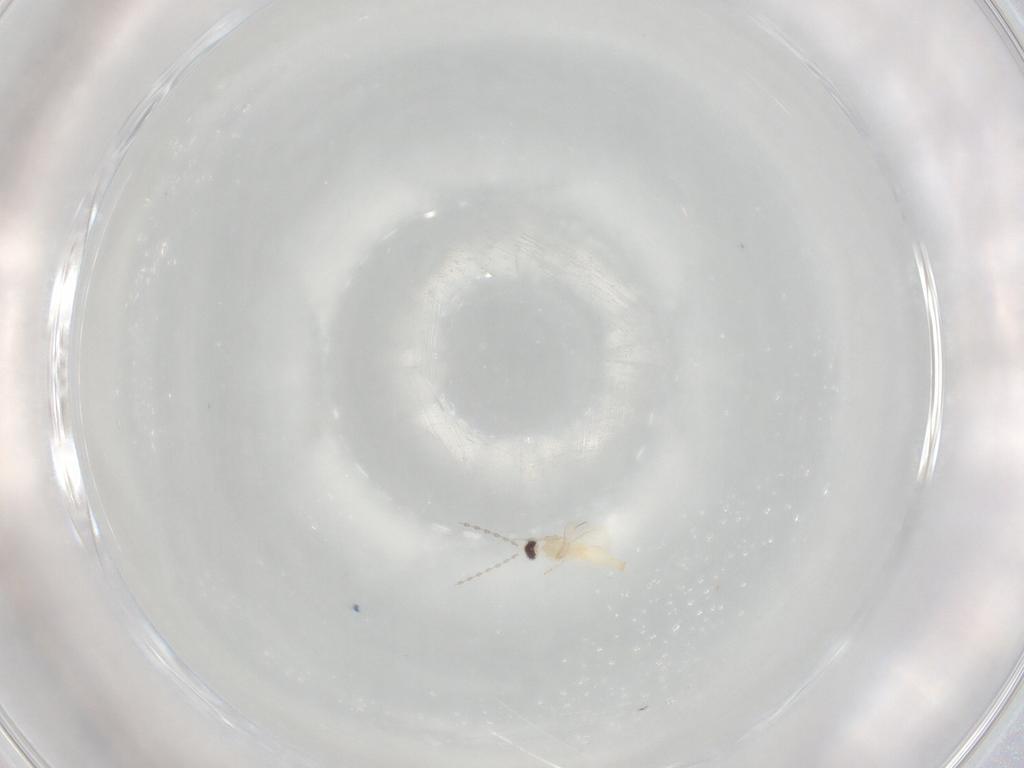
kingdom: Animalia
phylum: Arthropoda
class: Insecta
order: Diptera
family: Cecidomyiidae
